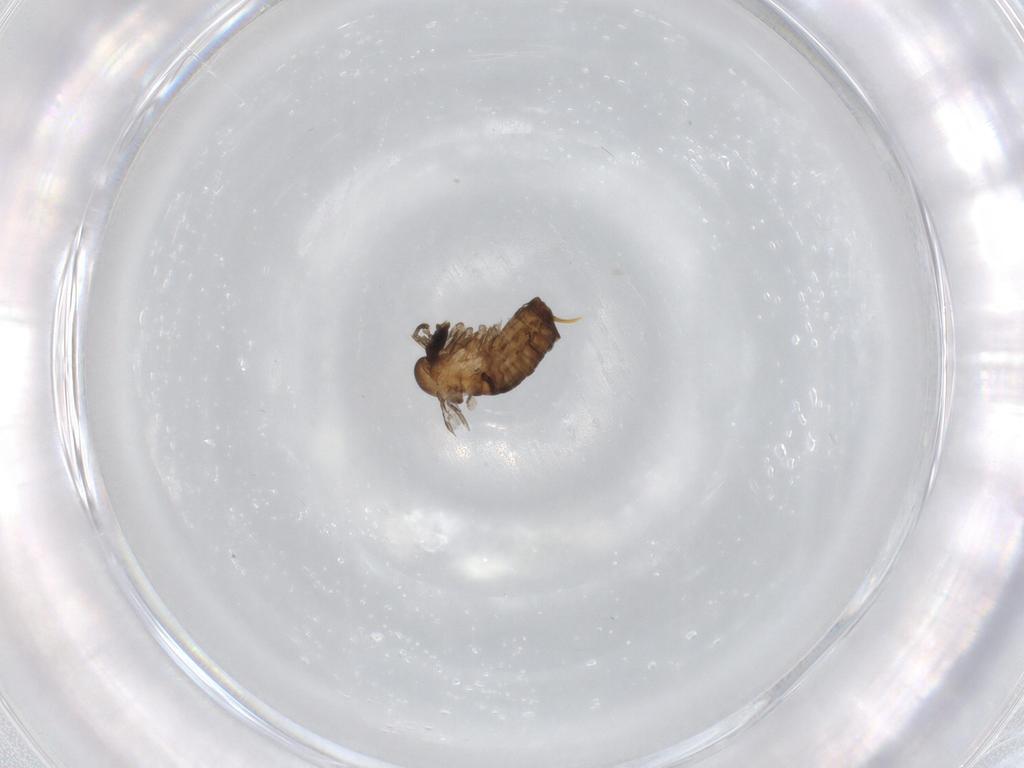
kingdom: Animalia
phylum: Arthropoda
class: Insecta
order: Diptera
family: Psychodidae
